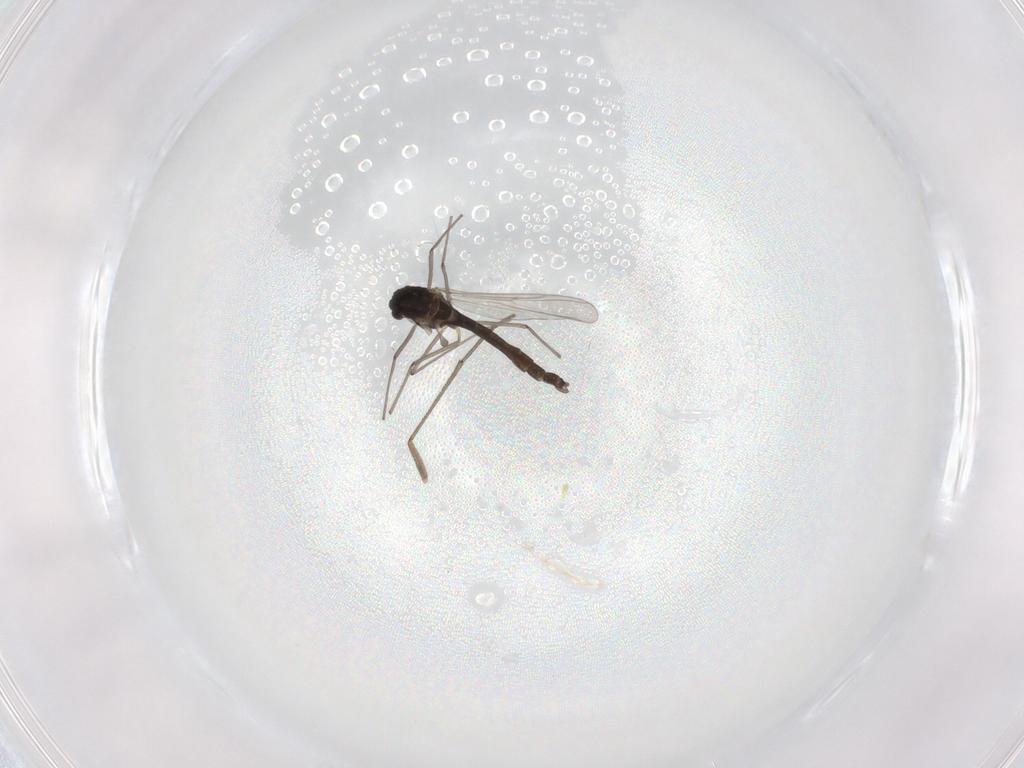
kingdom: Animalia
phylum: Arthropoda
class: Insecta
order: Diptera
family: Chironomidae
